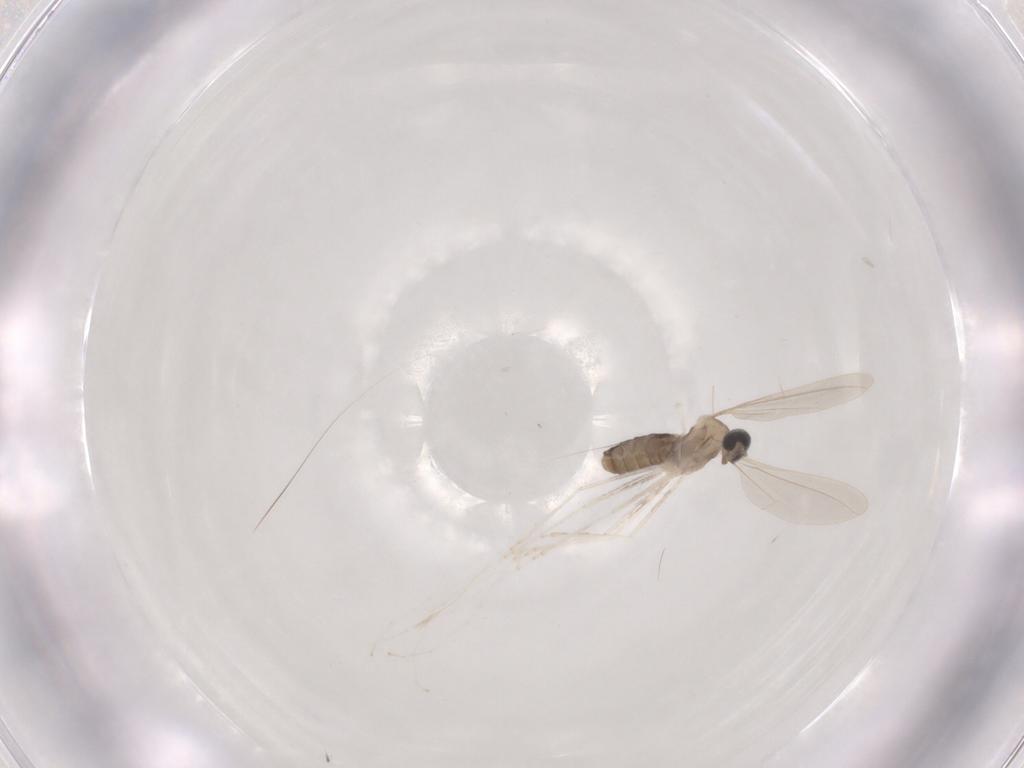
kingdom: Animalia
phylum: Arthropoda
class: Insecta
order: Diptera
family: Cecidomyiidae
